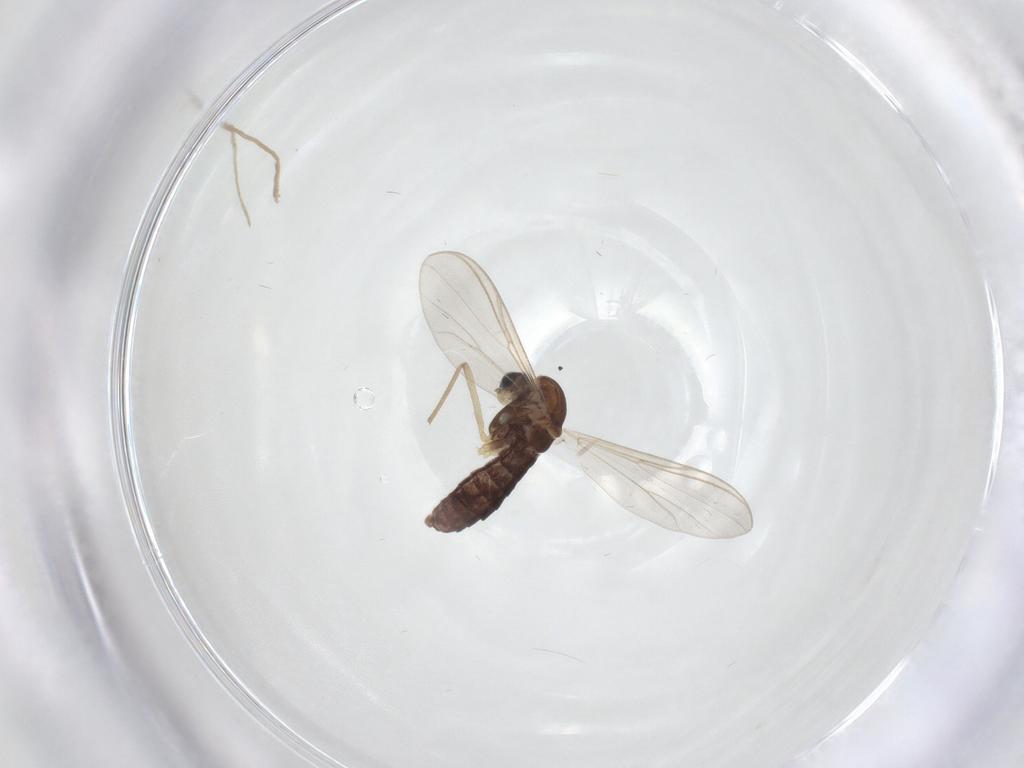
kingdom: Animalia
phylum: Arthropoda
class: Insecta
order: Diptera
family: Chironomidae
